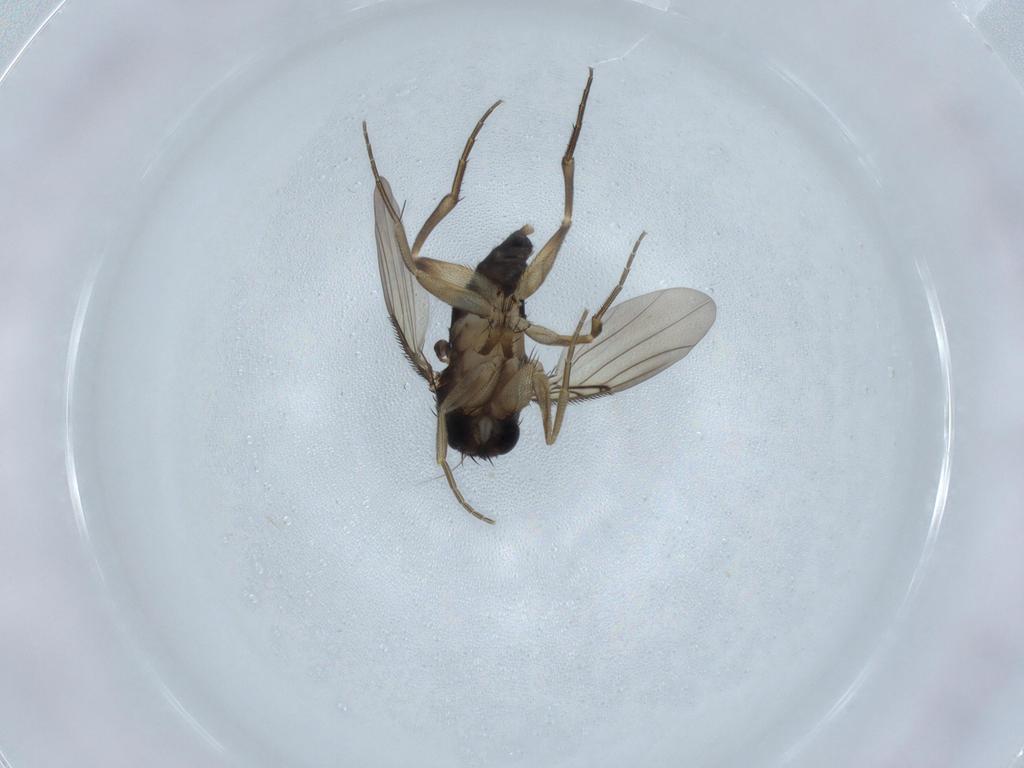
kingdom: Animalia
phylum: Arthropoda
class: Insecta
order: Diptera
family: Phoridae
